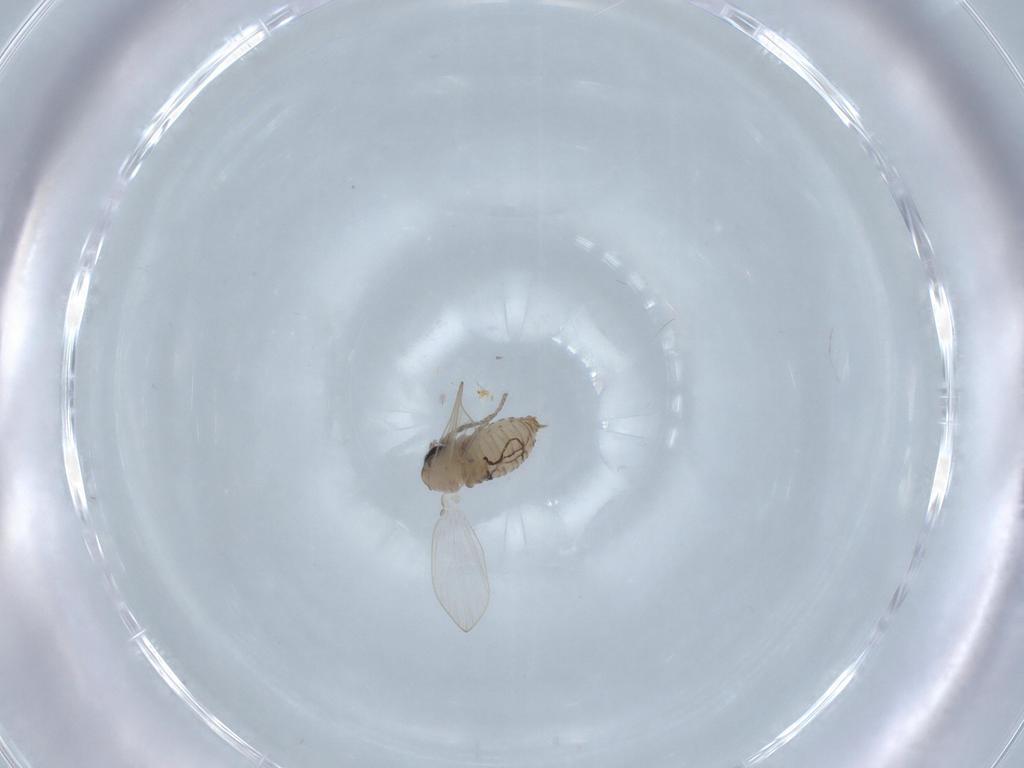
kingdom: Animalia
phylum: Arthropoda
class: Insecta
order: Diptera
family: Psychodidae
